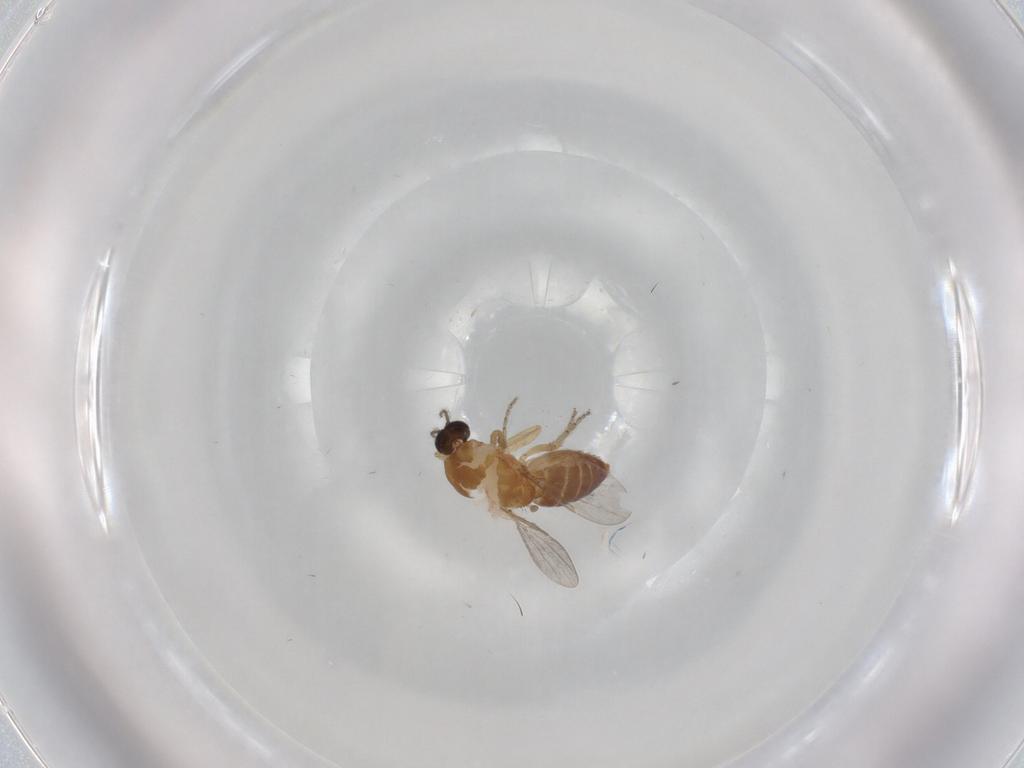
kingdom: Animalia
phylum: Arthropoda
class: Insecta
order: Diptera
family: Ceratopogonidae
